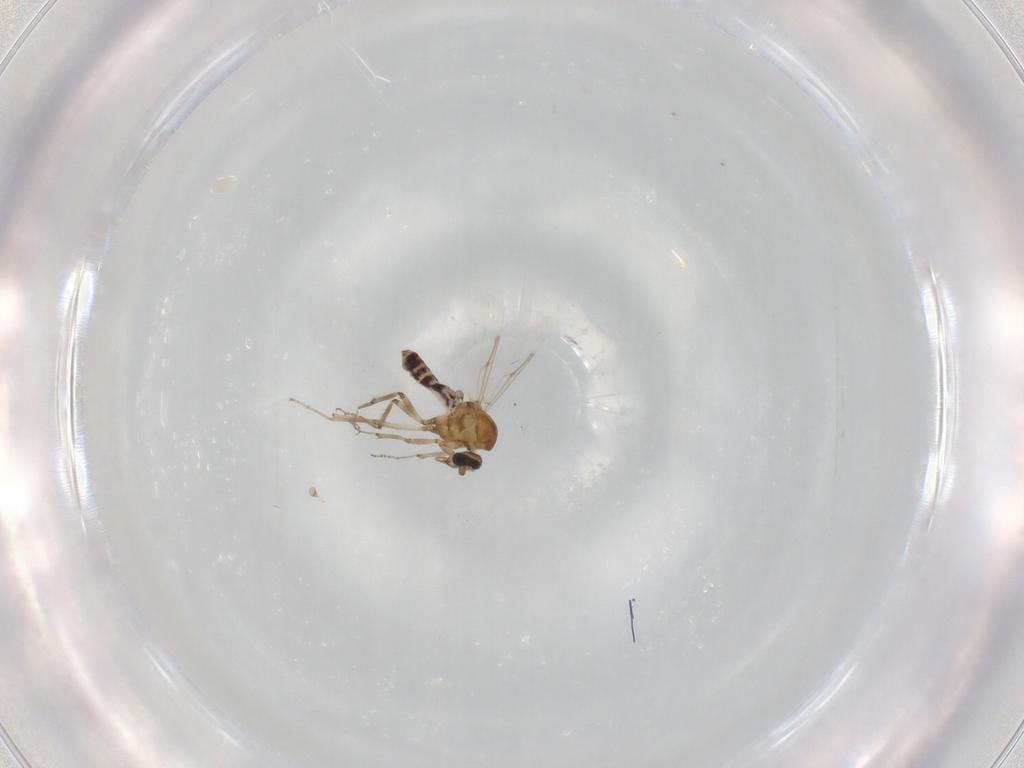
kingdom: Animalia
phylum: Arthropoda
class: Insecta
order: Diptera
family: Ceratopogonidae
